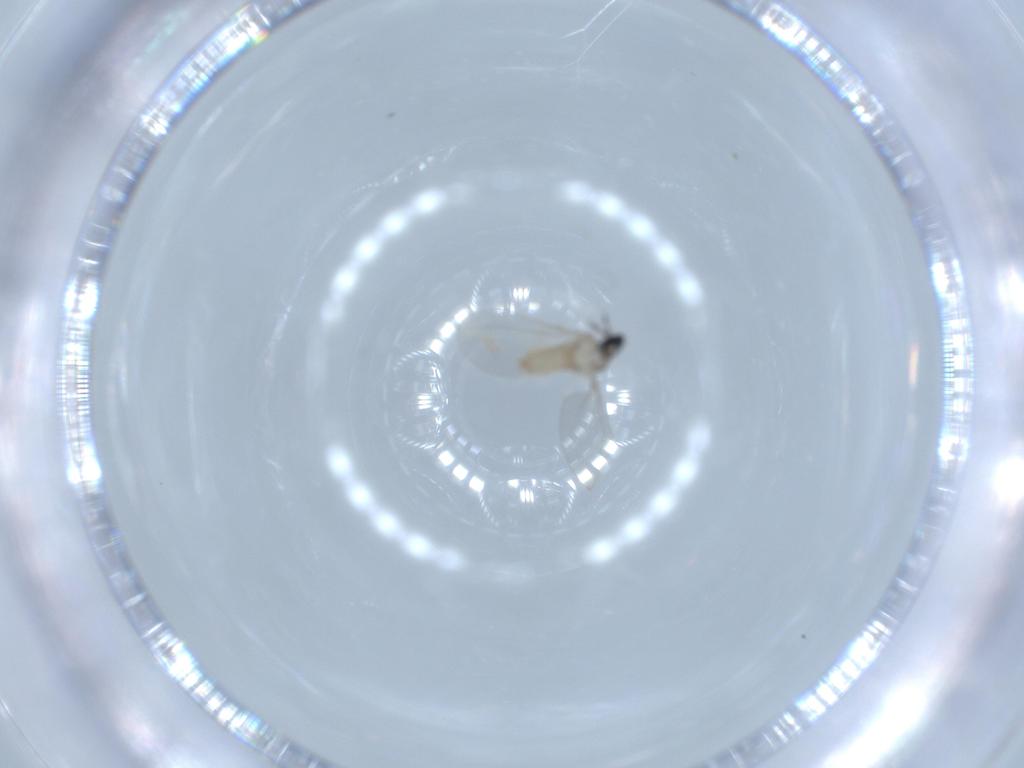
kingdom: Animalia
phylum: Arthropoda
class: Insecta
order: Diptera
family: Cecidomyiidae
